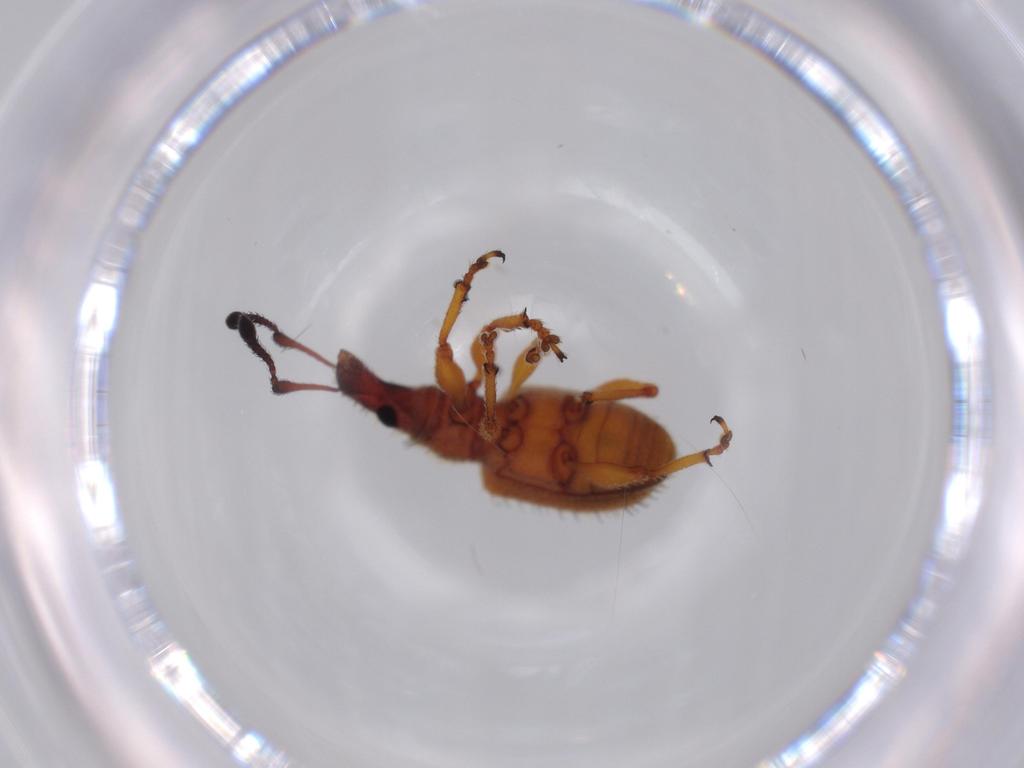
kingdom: Animalia
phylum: Arthropoda
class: Insecta
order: Coleoptera
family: Curculionidae
